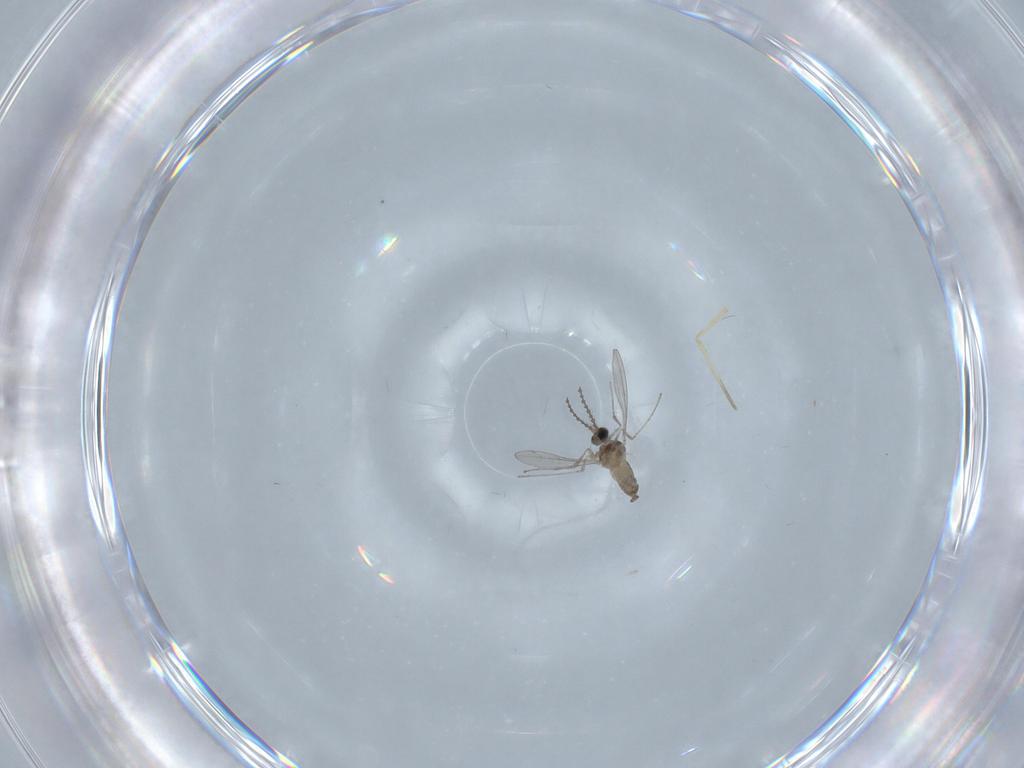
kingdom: Animalia
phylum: Arthropoda
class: Insecta
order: Diptera
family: Cecidomyiidae
